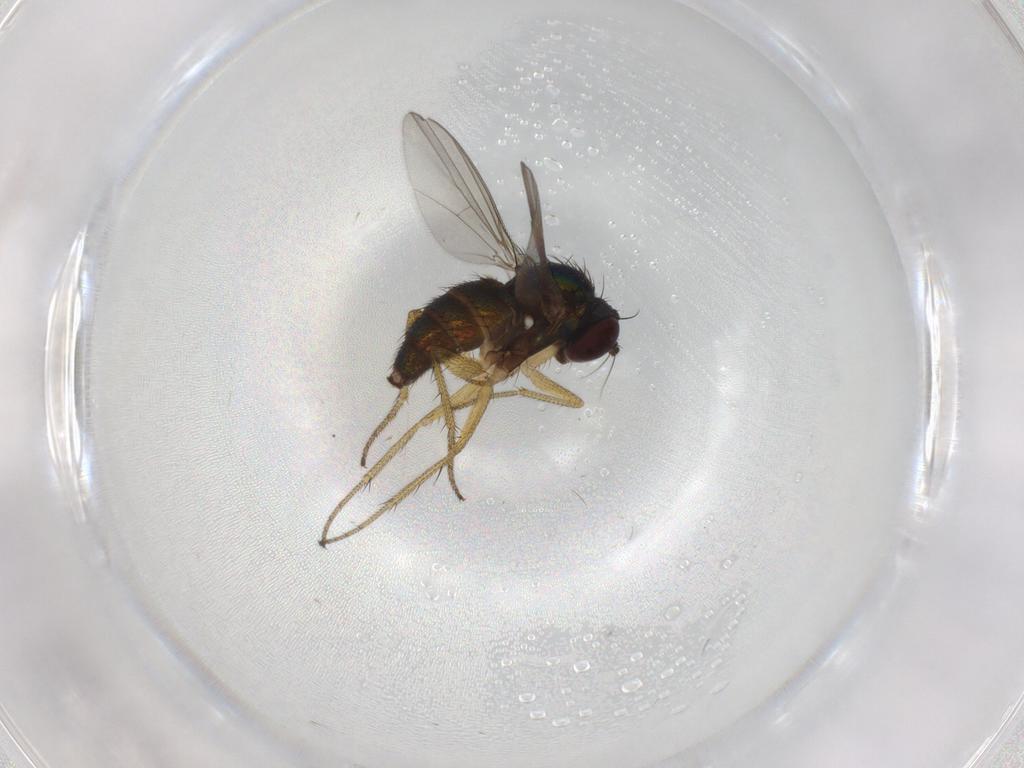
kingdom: Animalia
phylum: Arthropoda
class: Insecta
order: Diptera
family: Dolichopodidae
